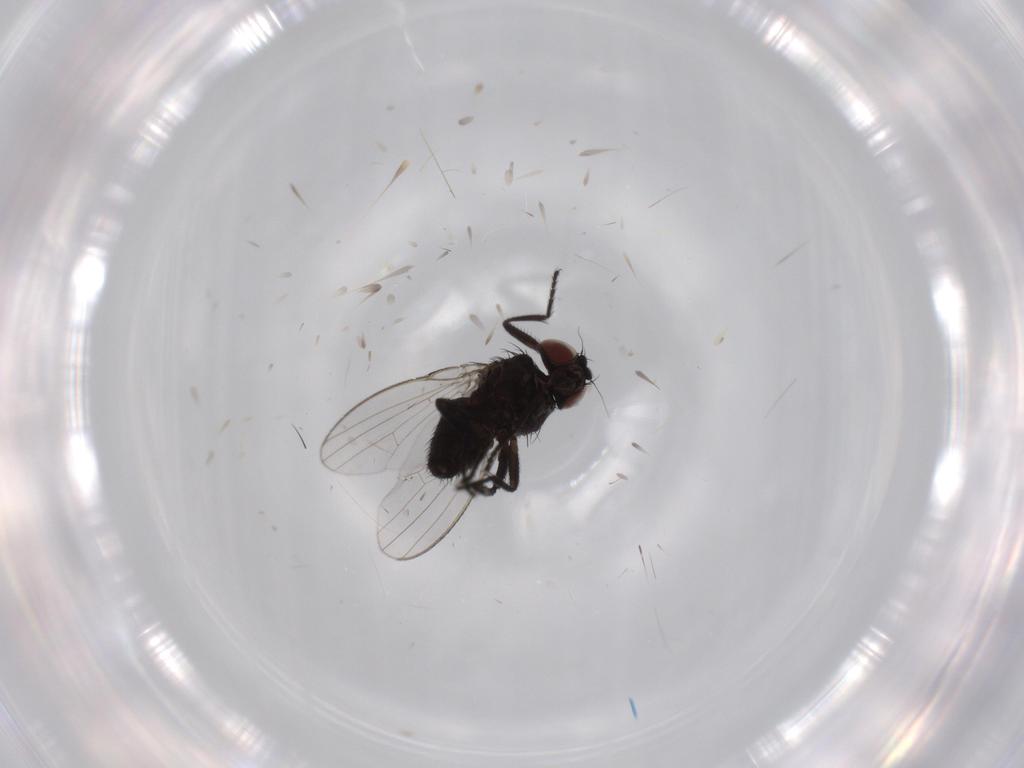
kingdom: Animalia
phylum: Arthropoda
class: Insecta
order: Diptera
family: Milichiidae
